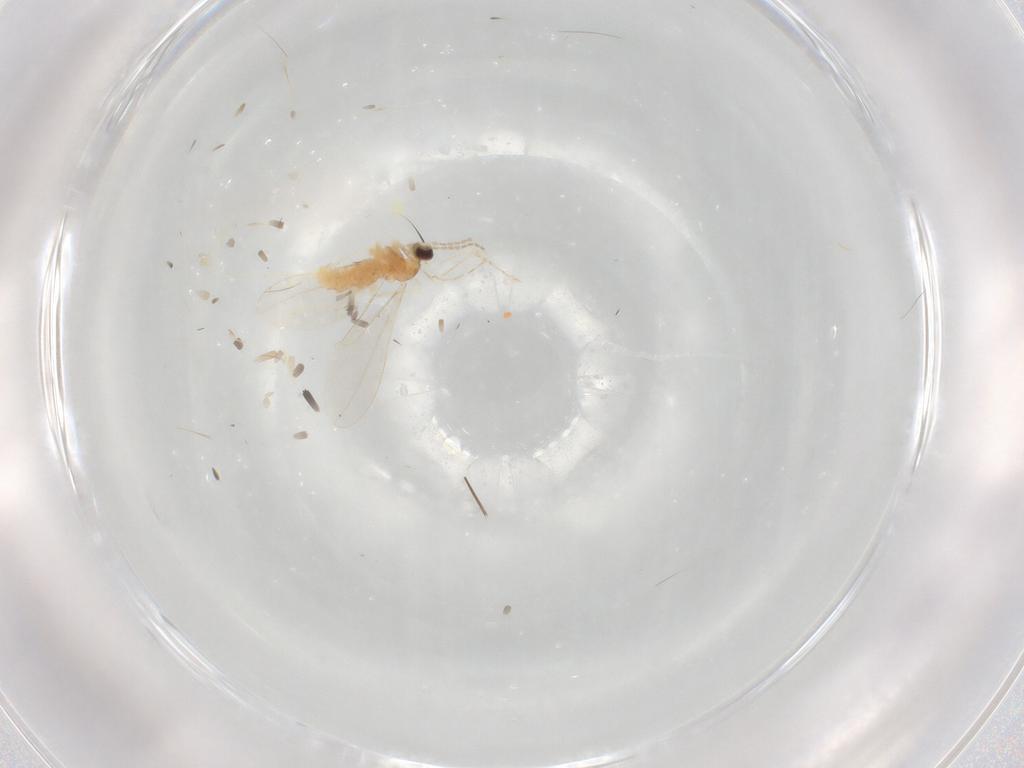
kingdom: Animalia
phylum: Arthropoda
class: Insecta
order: Diptera
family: Cecidomyiidae
